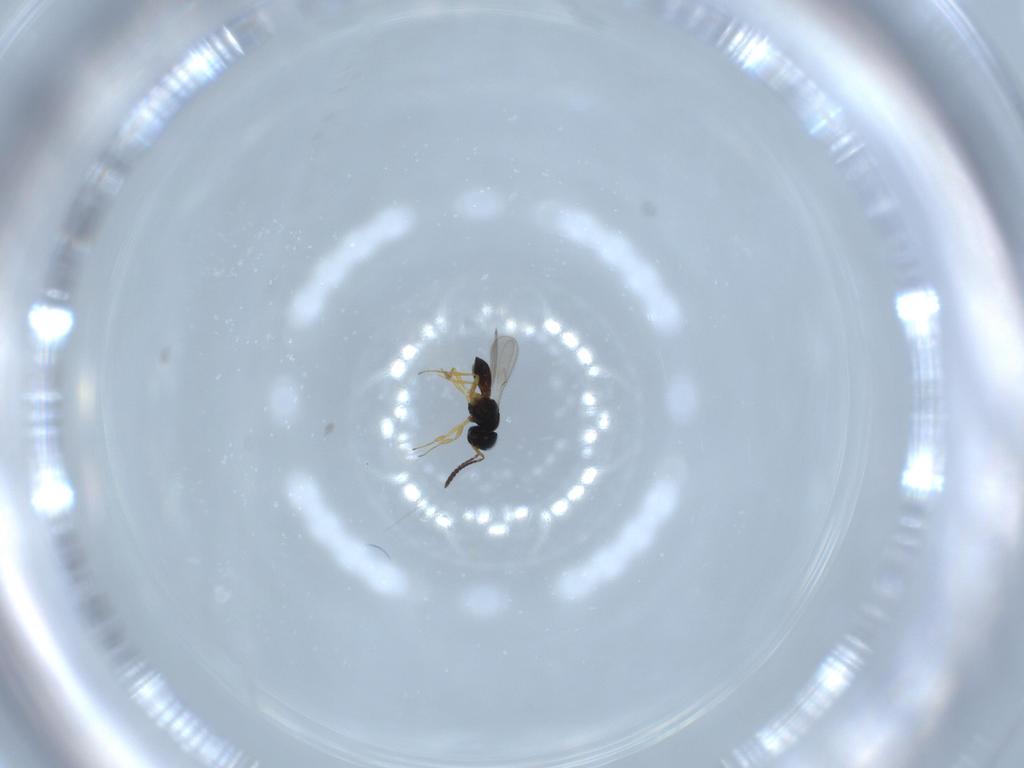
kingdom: Animalia
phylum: Arthropoda
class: Insecta
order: Hymenoptera
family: Scelionidae
